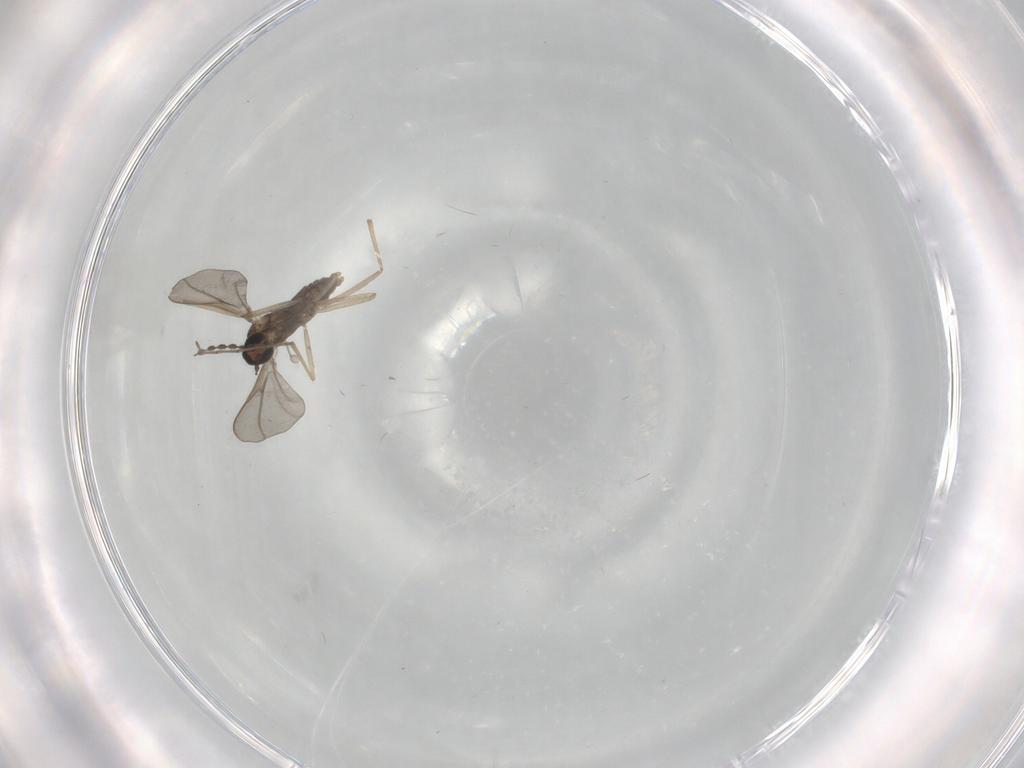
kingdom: Animalia
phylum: Arthropoda
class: Insecta
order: Diptera
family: Cecidomyiidae
